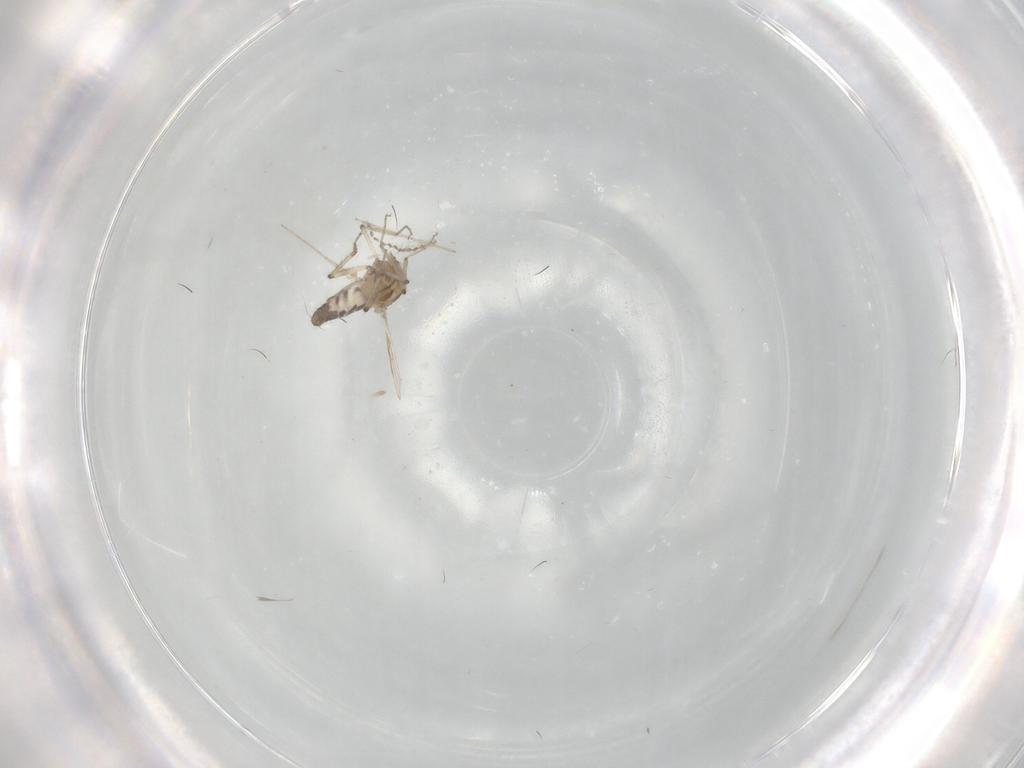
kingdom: Animalia
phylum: Arthropoda
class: Insecta
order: Diptera
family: Ceratopogonidae
